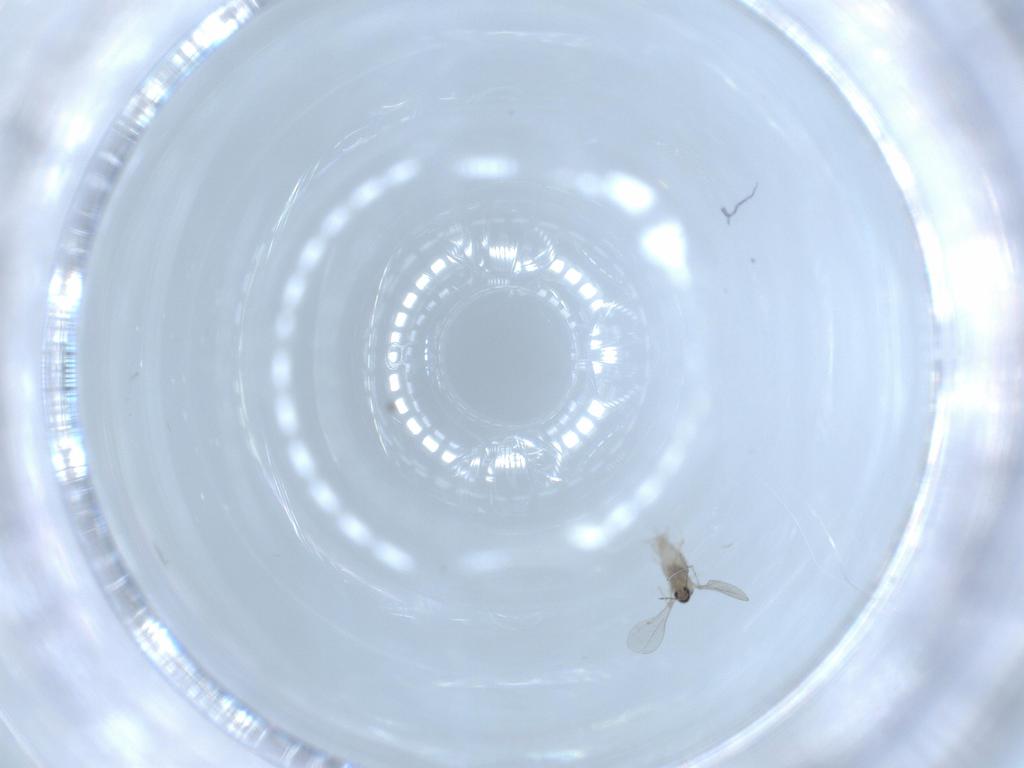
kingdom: Animalia
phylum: Arthropoda
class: Insecta
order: Diptera
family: Cecidomyiidae
